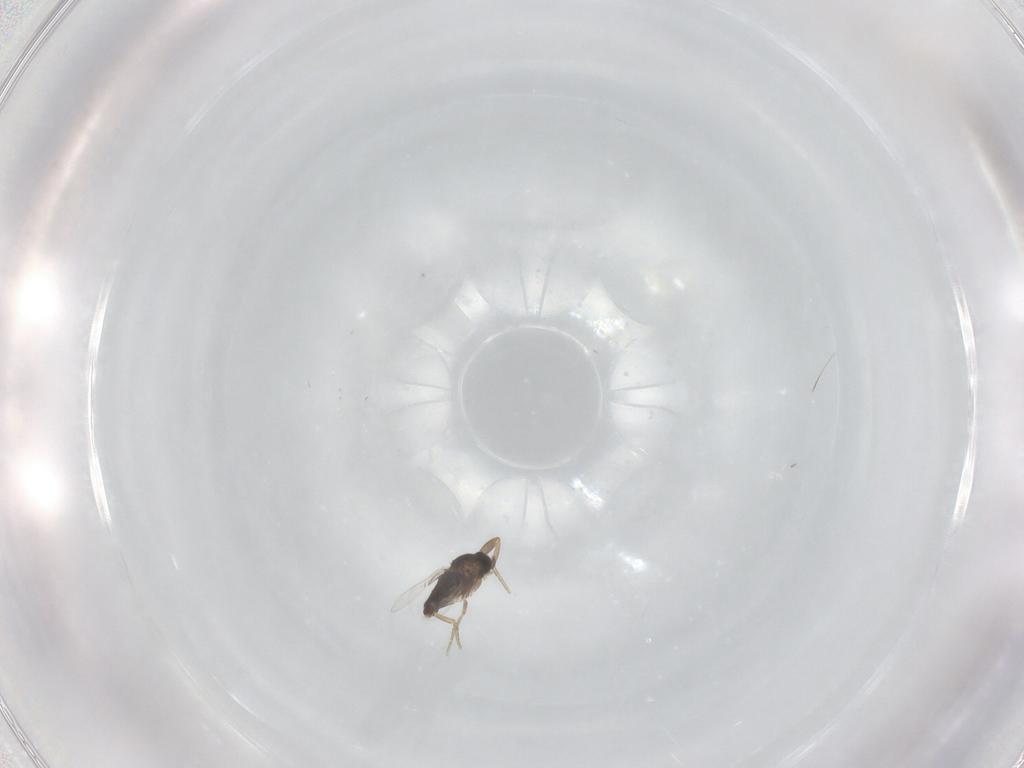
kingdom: Animalia
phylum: Arthropoda
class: Insecta
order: Diptera
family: Phoridae
